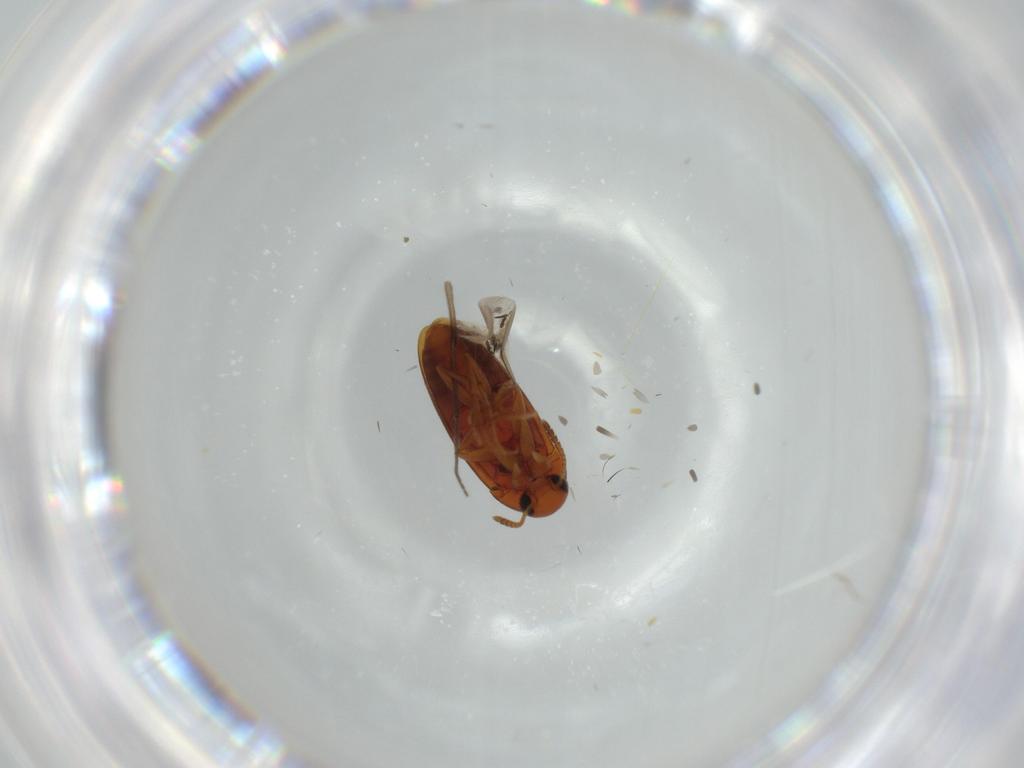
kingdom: Animalia
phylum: Arthropoda
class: Insecta
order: Coleoptera
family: Scraptiidae
